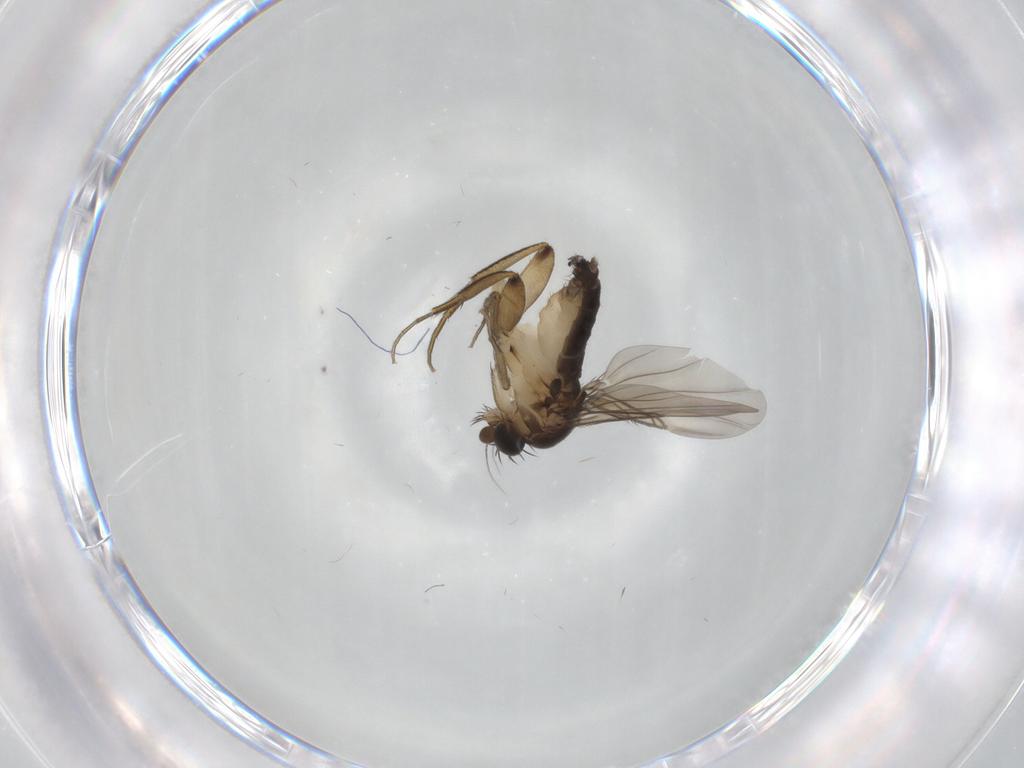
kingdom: Animalia
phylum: Arthropoda
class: Insecta
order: Diptera
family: Phoridae
